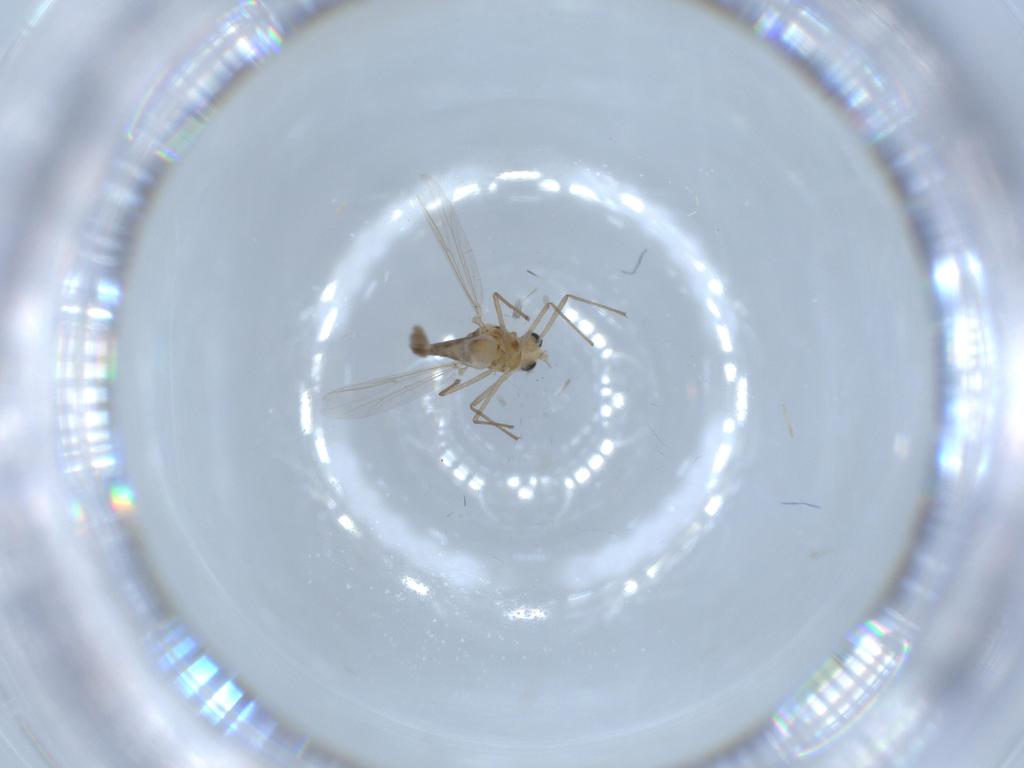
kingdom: Animalia
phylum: Arthropoda
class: Insecta
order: Diptera
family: Chironomidae
